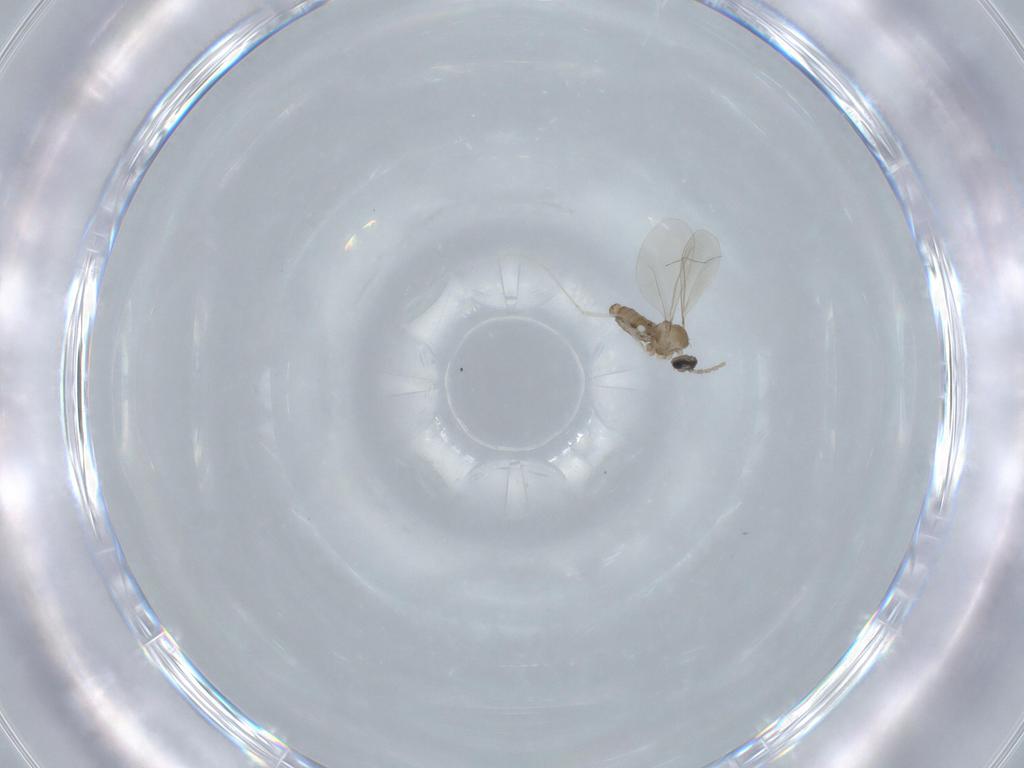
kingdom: Animalia
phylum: Arthropoda
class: Insecta
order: Diptera
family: Cecidomyiidae
